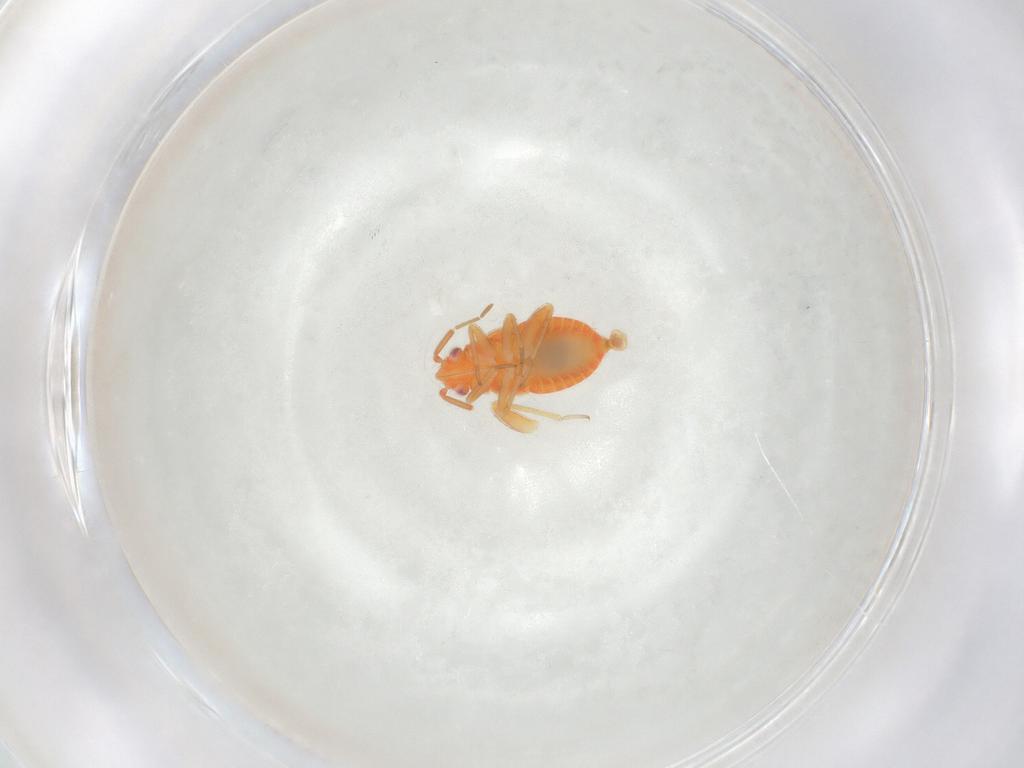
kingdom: Animalia
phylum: Arthropoda
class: Insecta
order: Hemiptera
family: Miridae
